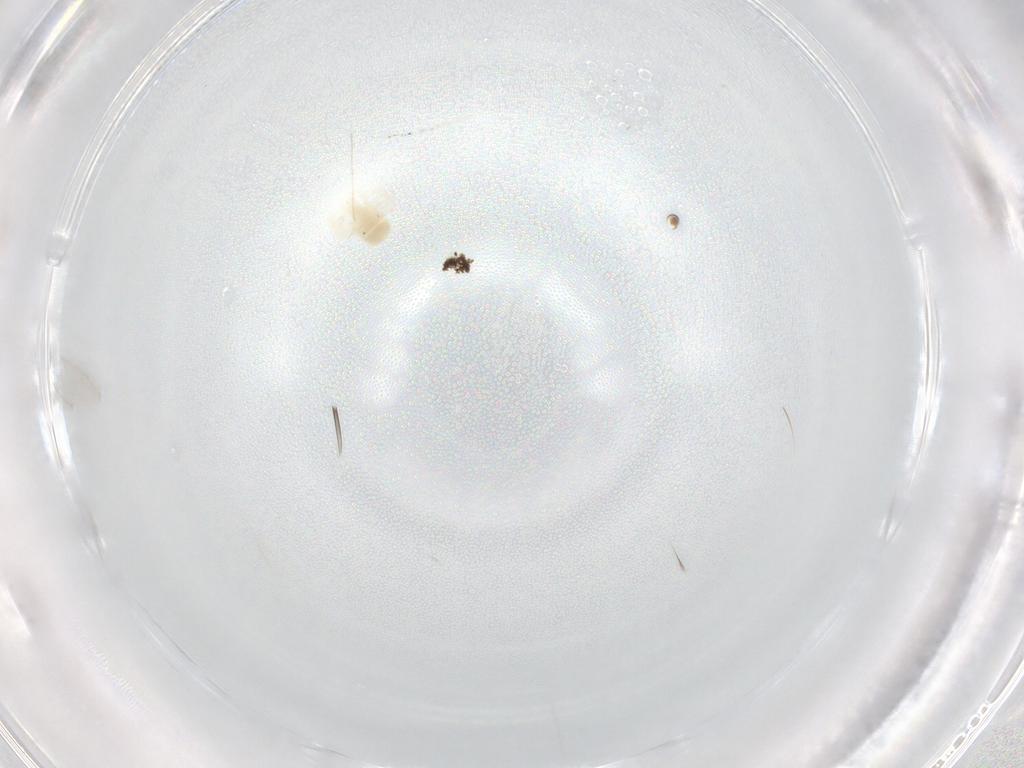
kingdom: Animalia
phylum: Arthropoda
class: Arachnida
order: Trombidiformes
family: Anystidae
